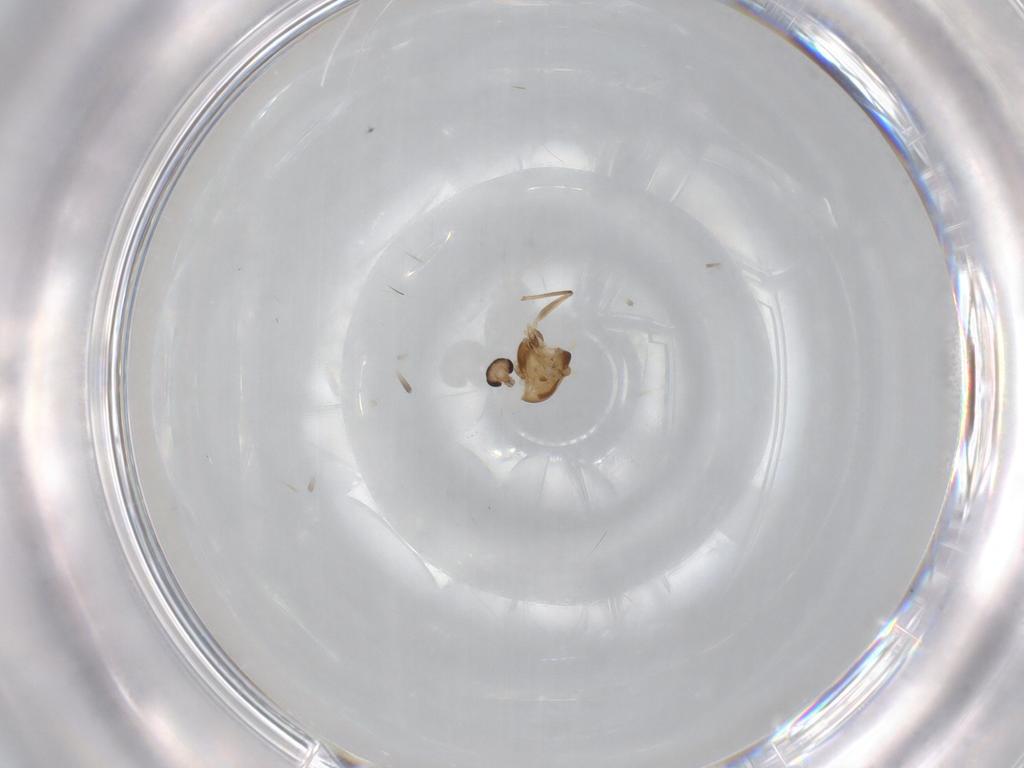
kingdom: Animalia
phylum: Arthropoda
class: Insecta
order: Diptera
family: Chironomidae
